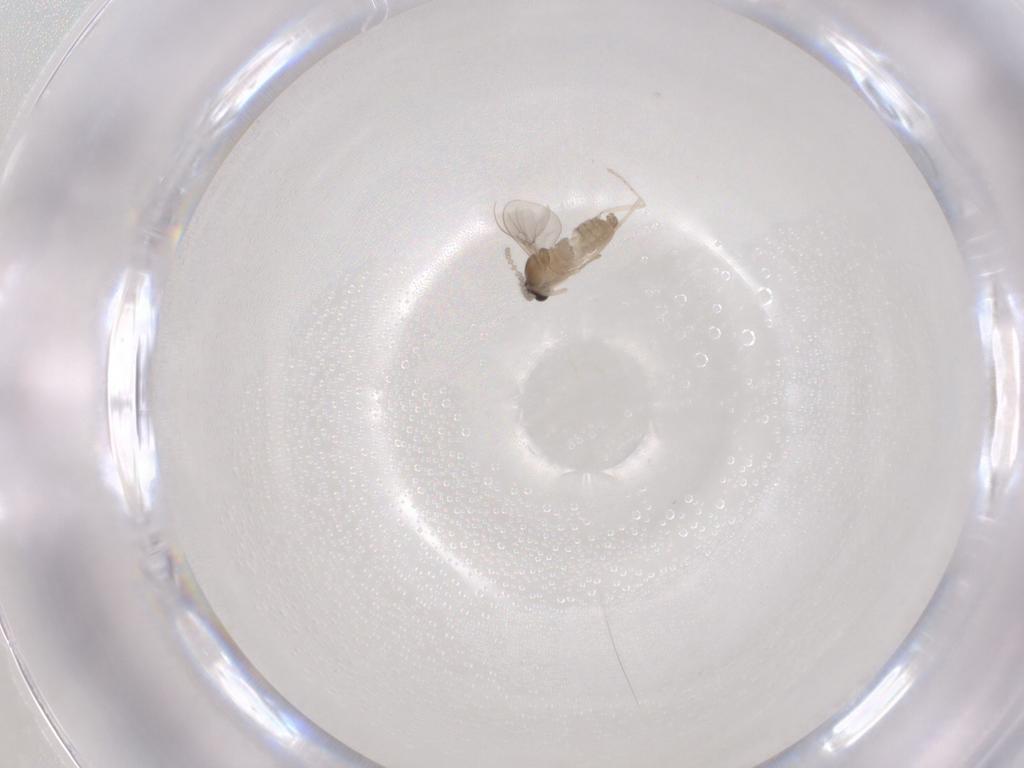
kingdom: Animalia
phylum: Arthropoda
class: Insecta
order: Diptera
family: Cecidomyiidae
